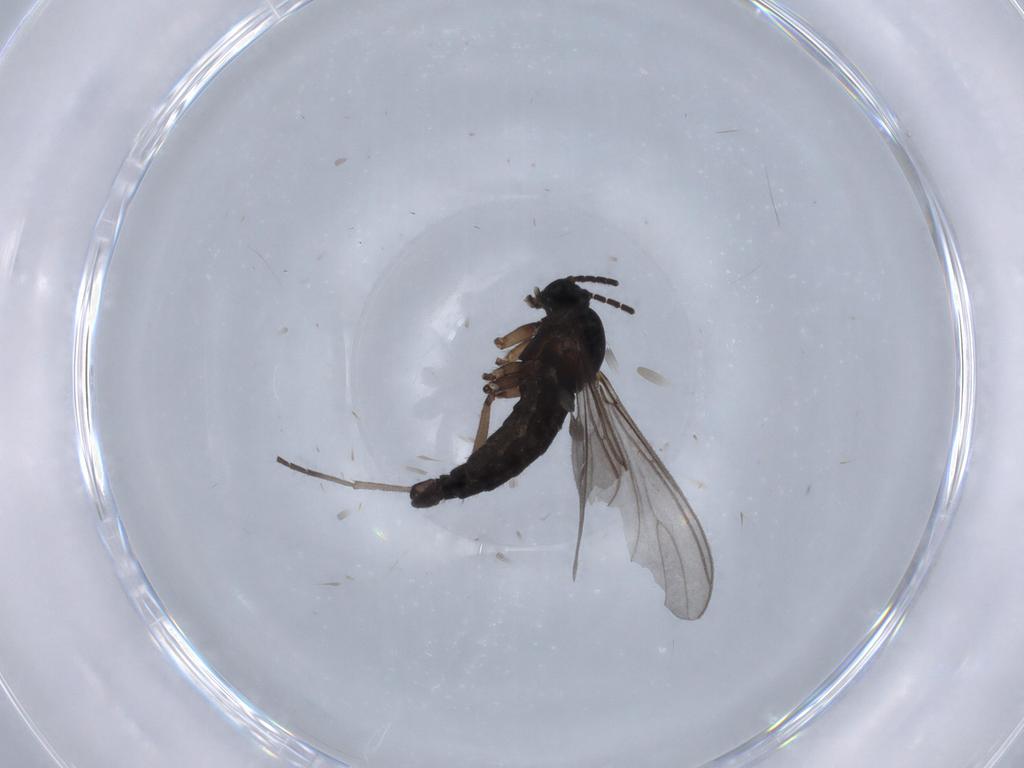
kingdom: Animalia
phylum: Arthropoda
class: Insecta
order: Diptera
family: Sciaridae
